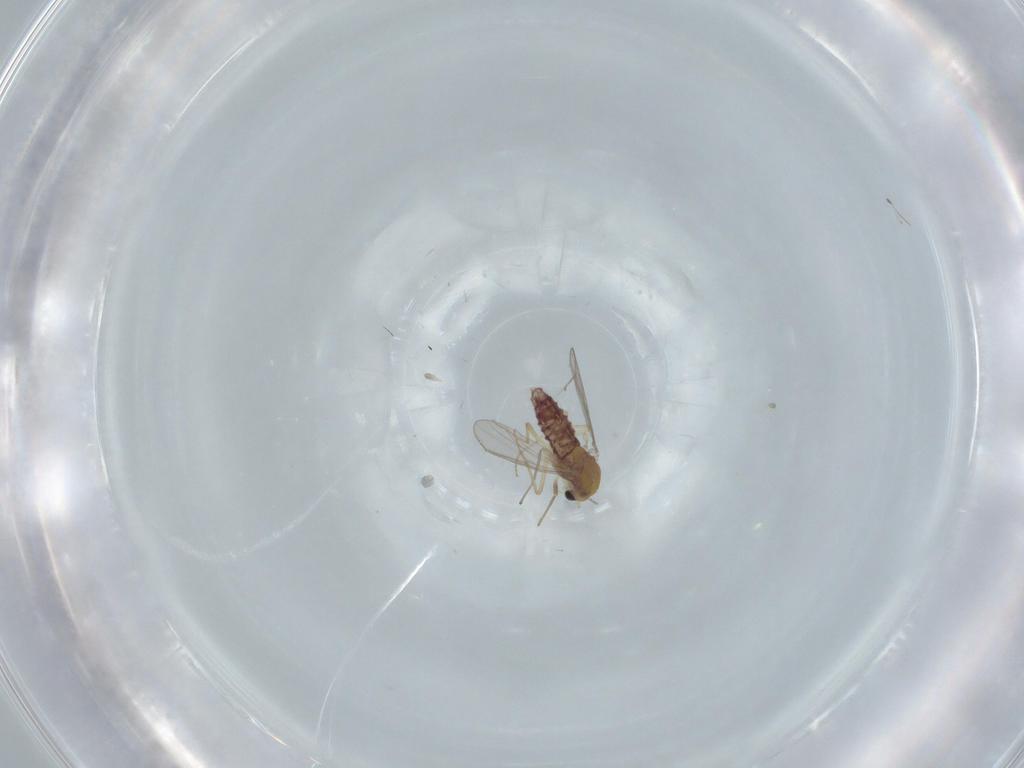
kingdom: Animalia
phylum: Arthropoda
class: Insecta
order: Diptera
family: Chironomidae
